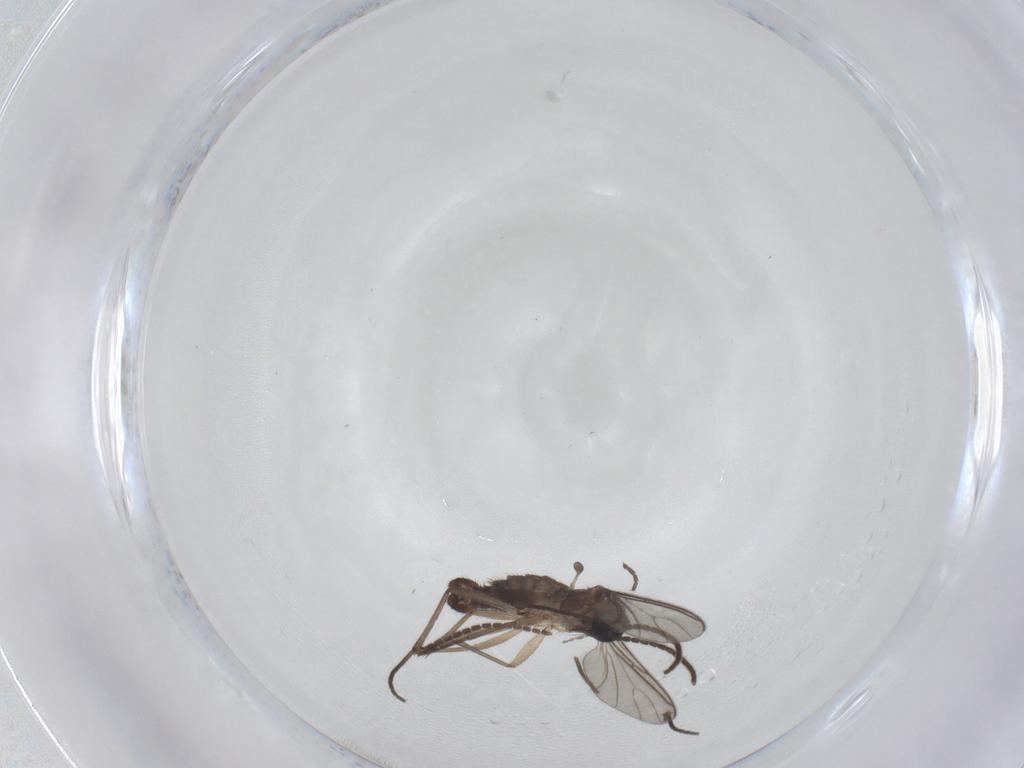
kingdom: Animalia
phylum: Arthropoda
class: Insecta
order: Diptera
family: Sciaridae
